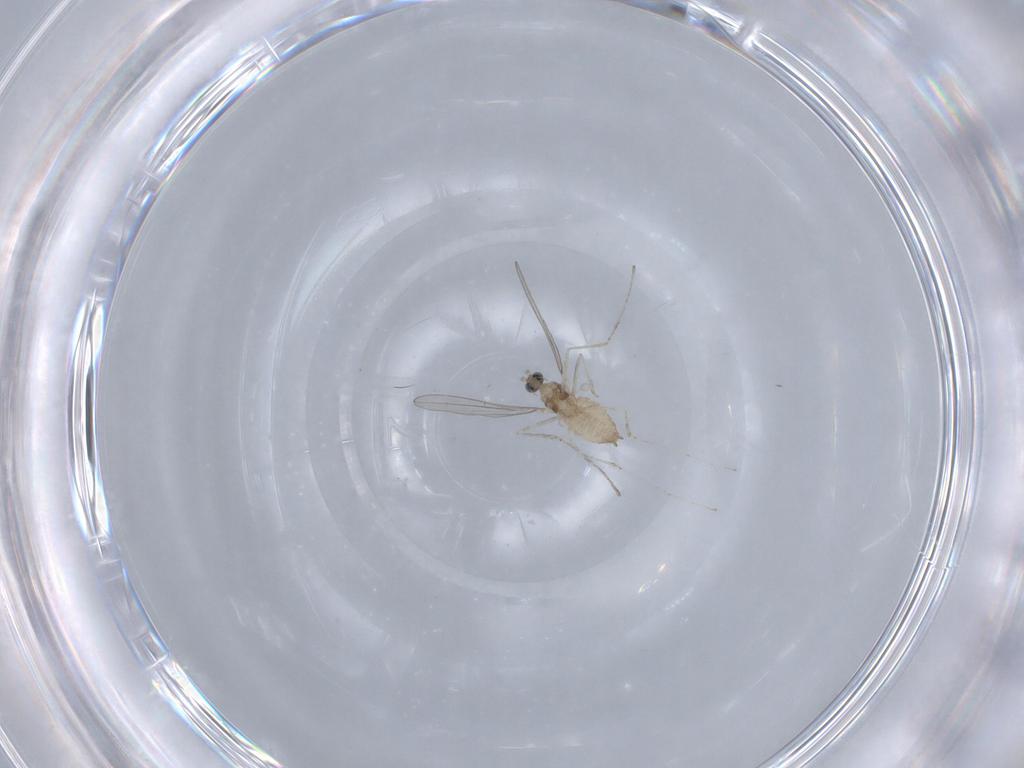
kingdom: Animalia
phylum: Arthropoda
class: Insecta
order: Diptera
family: Cecidomyiidae
